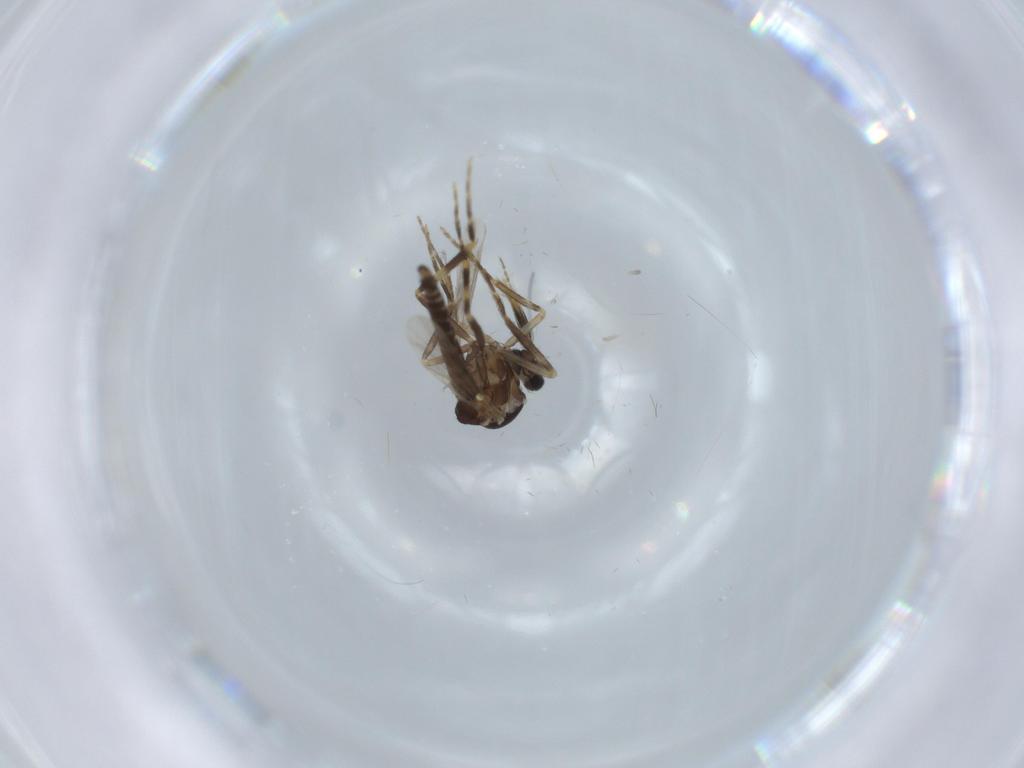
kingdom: Animalia
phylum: Arthropoda
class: Insecta
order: Diptera
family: Ceratopogonidae
